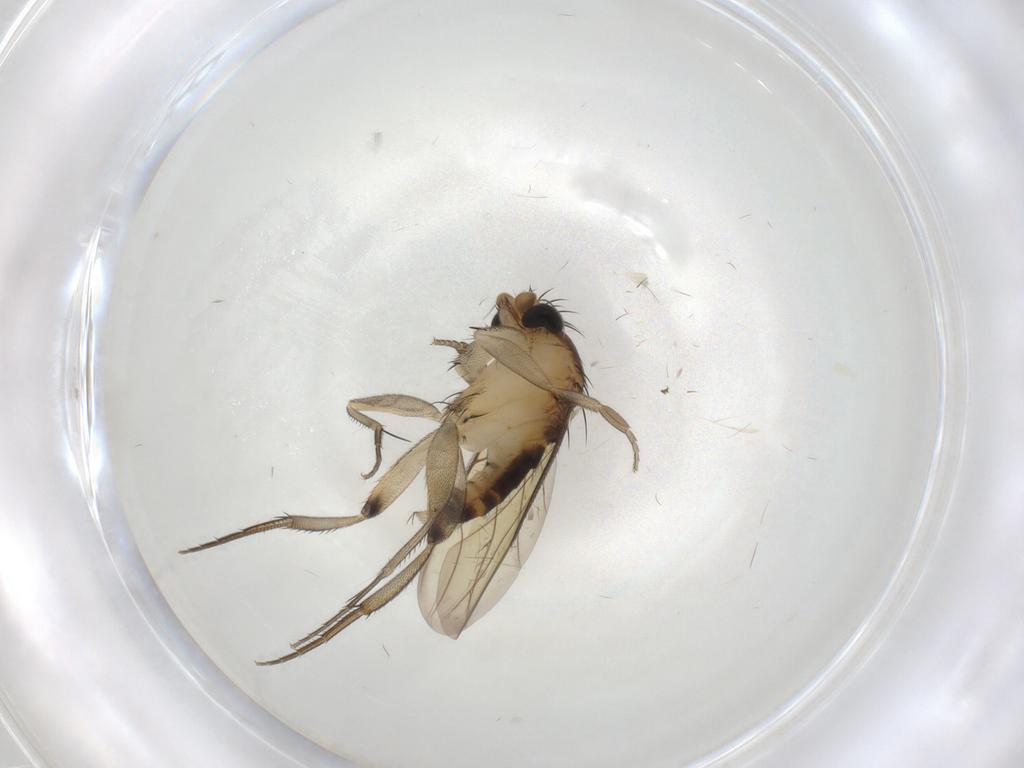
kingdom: Animalia
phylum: Arthropoda
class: Insecta
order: Diptera
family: Phoridae
